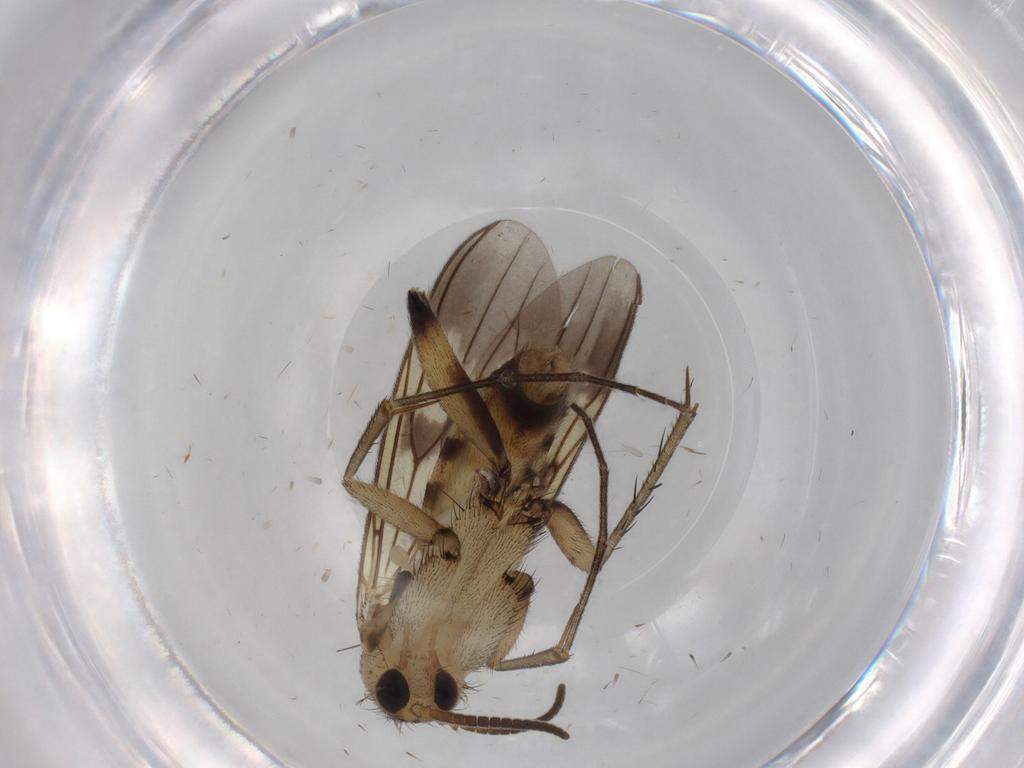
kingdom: Animalia
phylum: Arthropoda
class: Insecta
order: Diptera
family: Mycetophilidae
